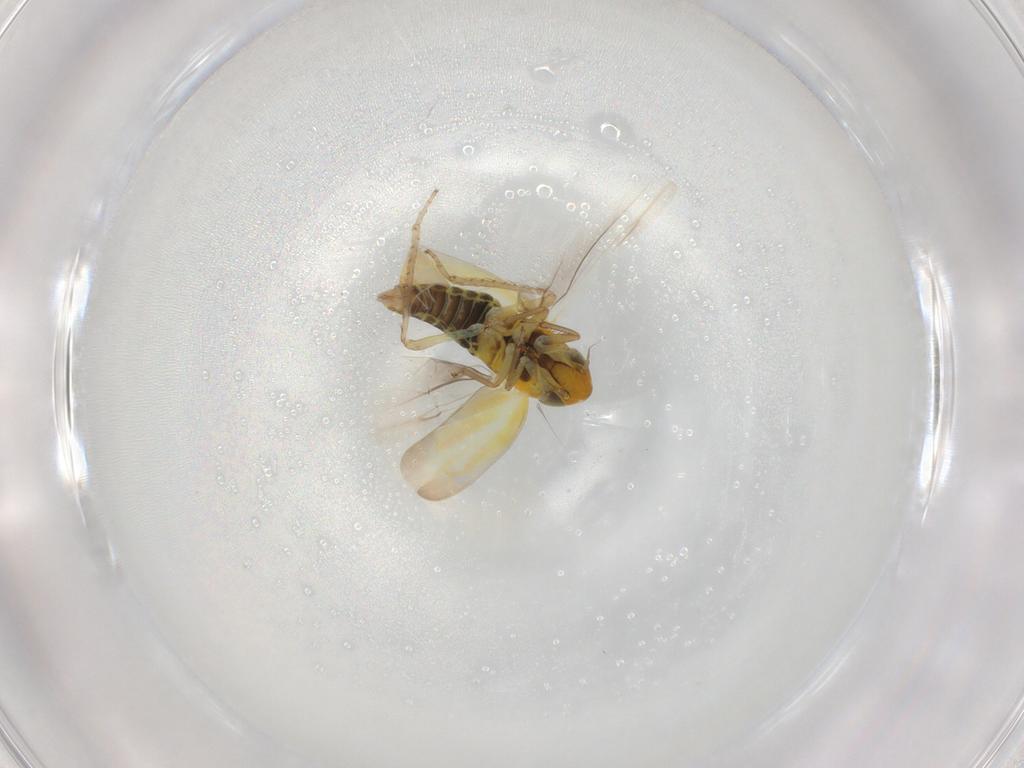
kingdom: Animalia
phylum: Arthropoda
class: Insecta
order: Hemiptera
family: Cicadellidae
